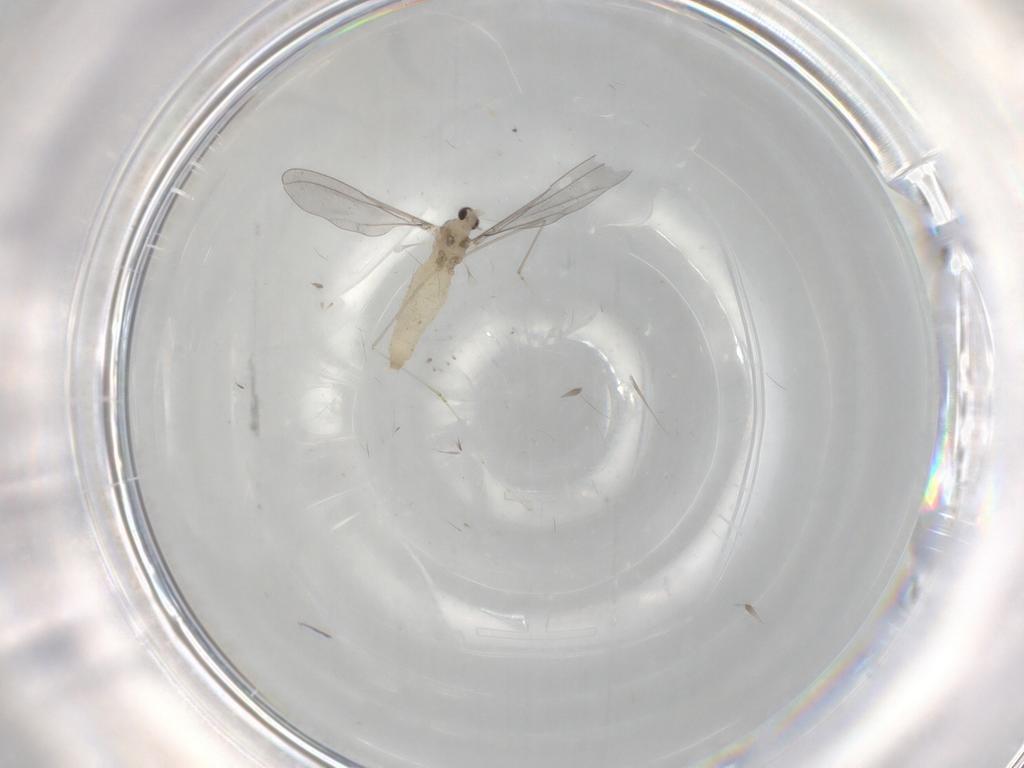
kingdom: Animalia
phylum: Arthropoda
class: Insecta
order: Diptera
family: Cecidomyiidae
